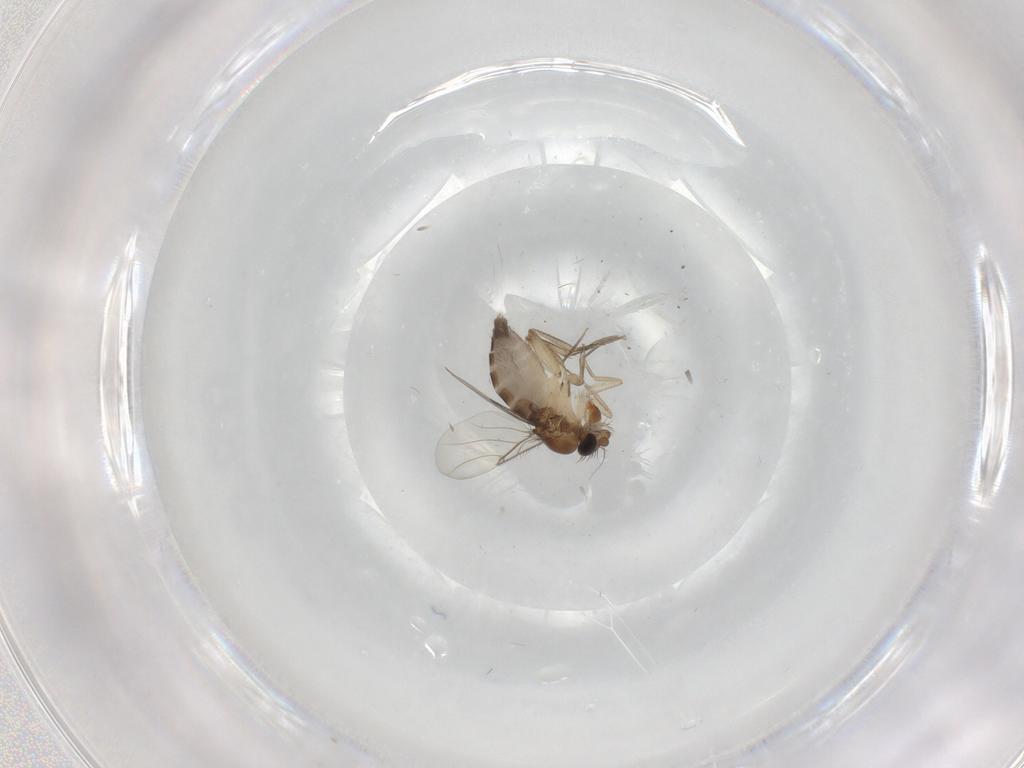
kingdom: Animalia
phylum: Arthropoda
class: Insecta
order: Diptera
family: Phoridae
